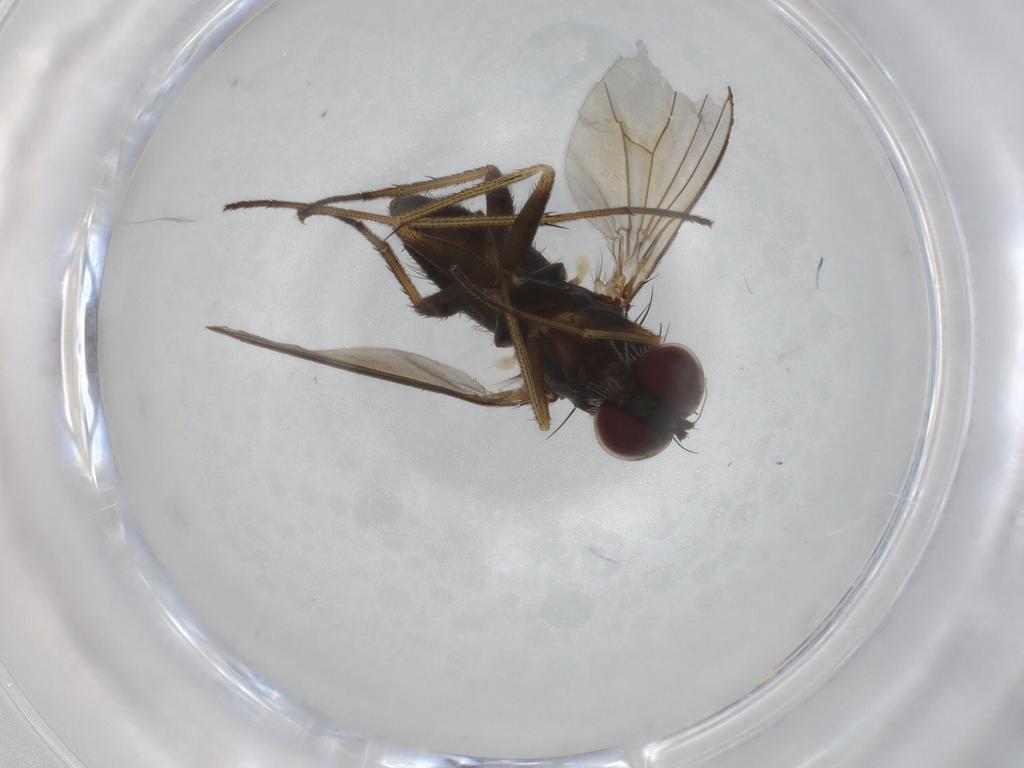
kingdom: Animalia
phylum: Arthropoda
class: Insecta
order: Diptera
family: Dolichopodidae
